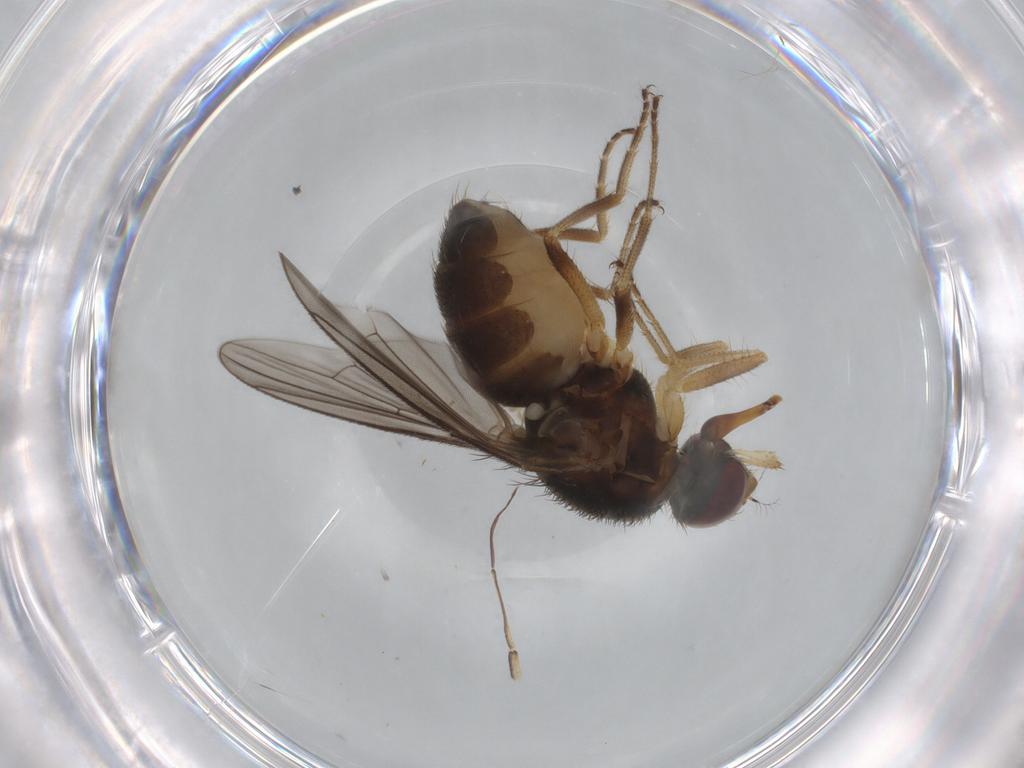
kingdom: Animalia
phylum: Arthropoda
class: Insecta
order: Diptera
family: Muscidae
